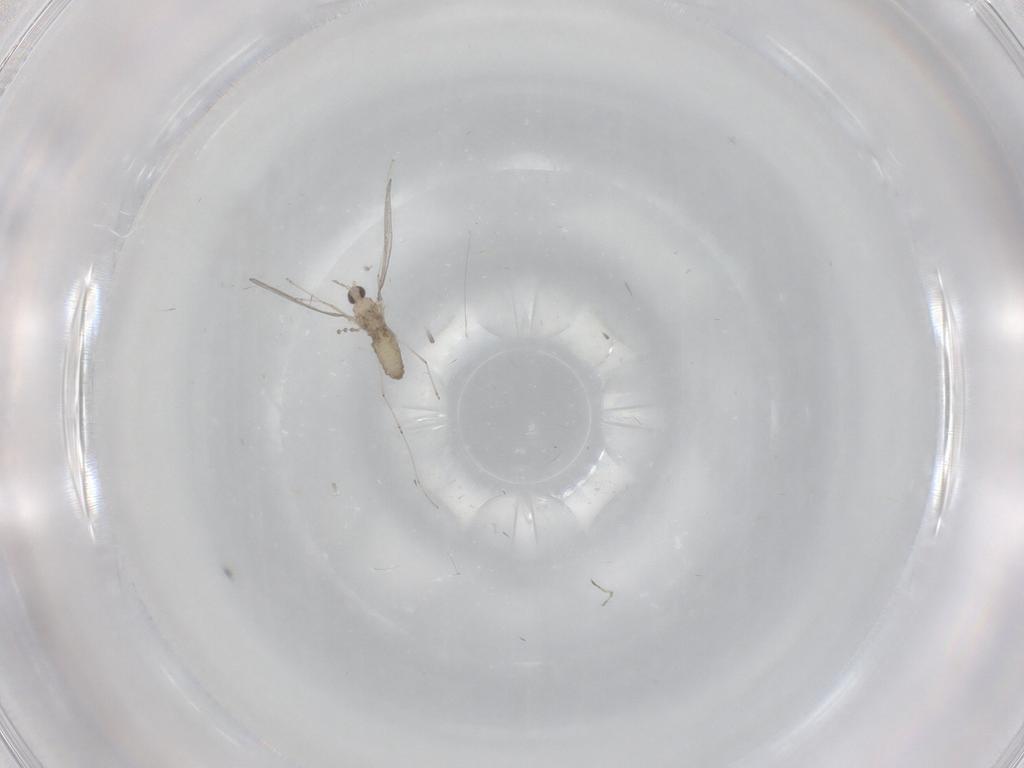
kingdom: Animalia
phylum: Arthropoda
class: Insecta
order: Diptera
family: Cecidomyiidae
